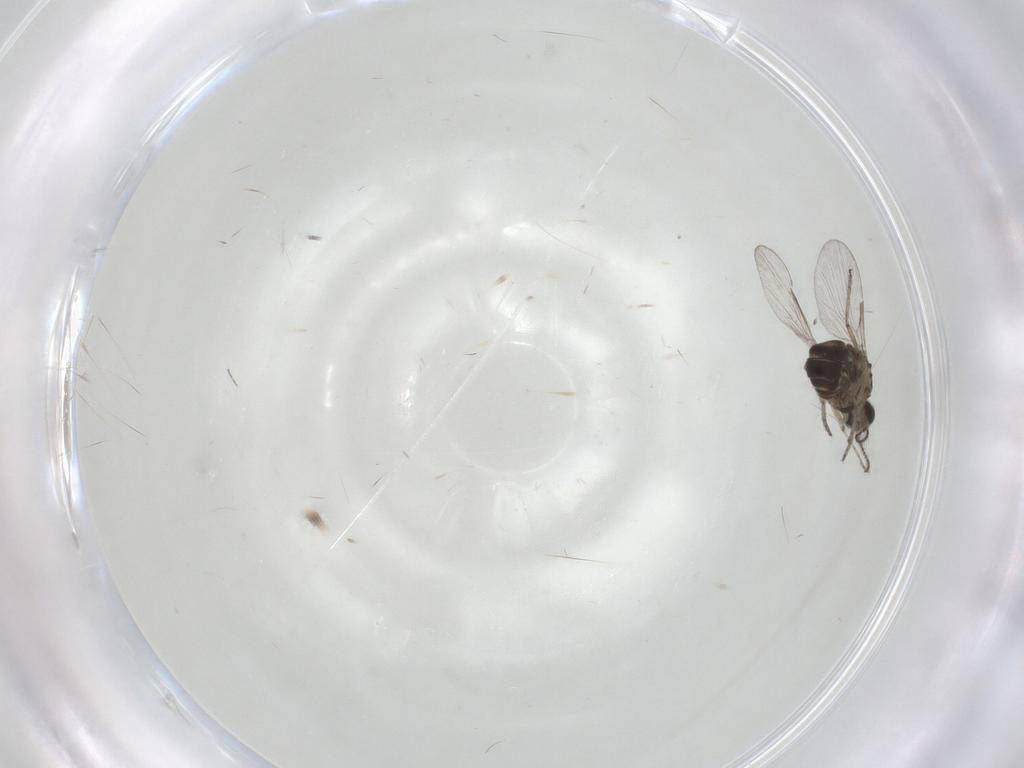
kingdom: Animalia
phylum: Arthropoda
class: Insecta
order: Diptera
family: Ceratopogonidae
